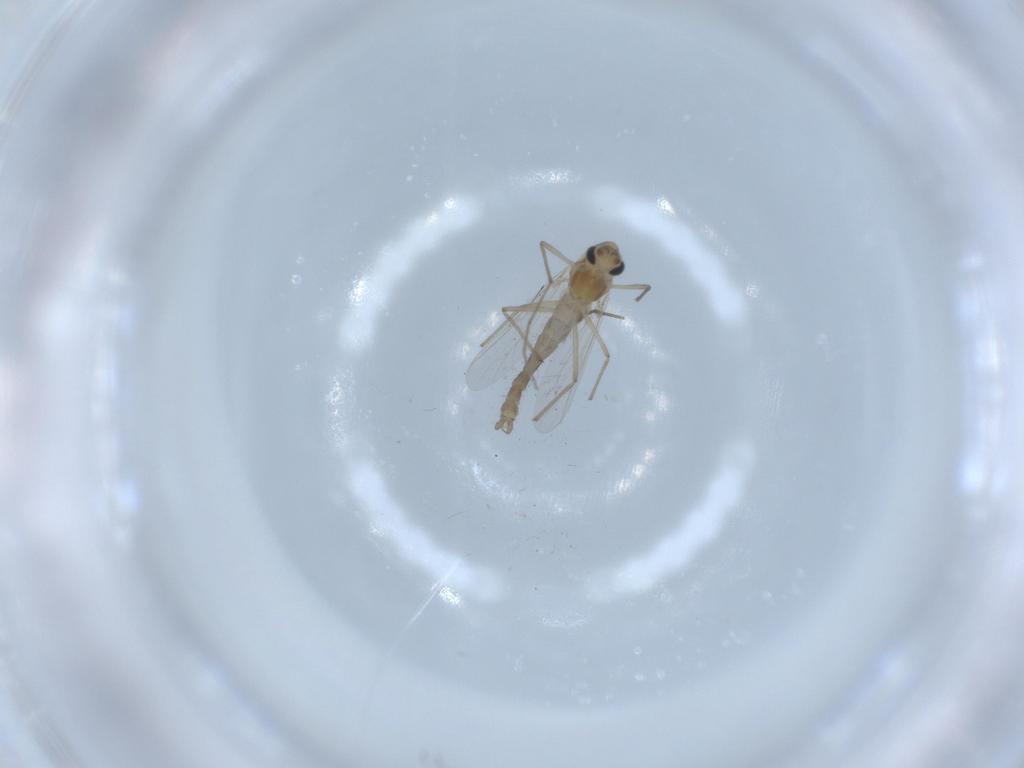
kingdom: Animalia
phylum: Arthropoda
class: Insecta
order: Diptera
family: Chironomidae
